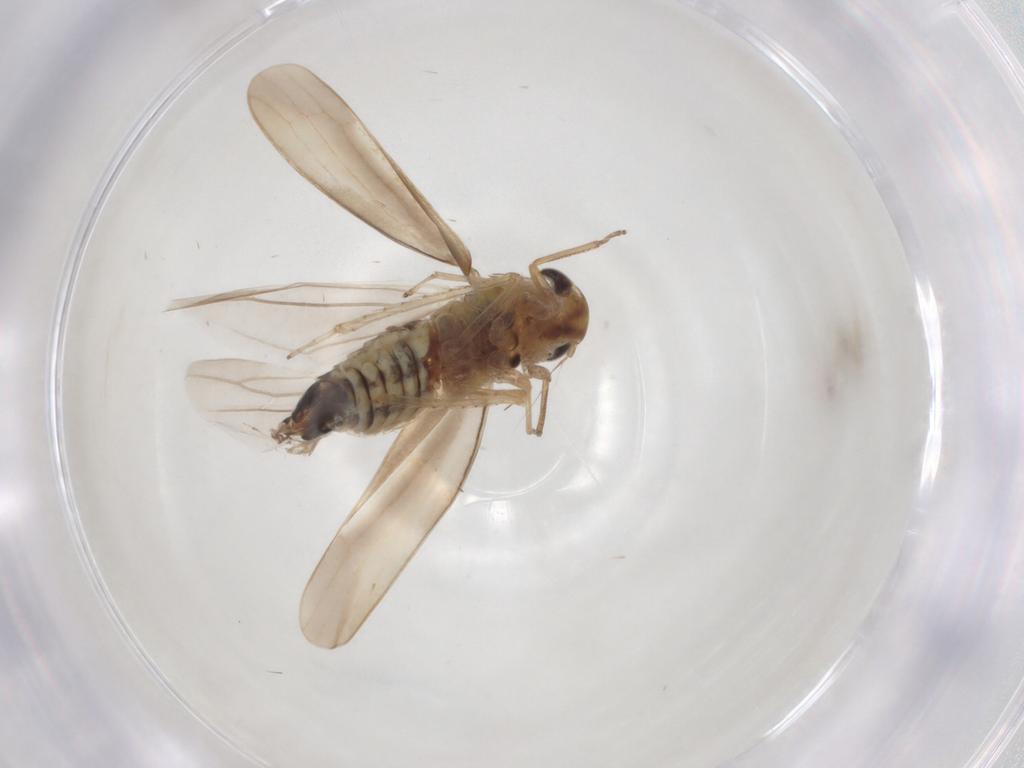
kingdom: Animalia
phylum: Arthropoda
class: Insecta
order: Hemiptera
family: Cicadellidae
